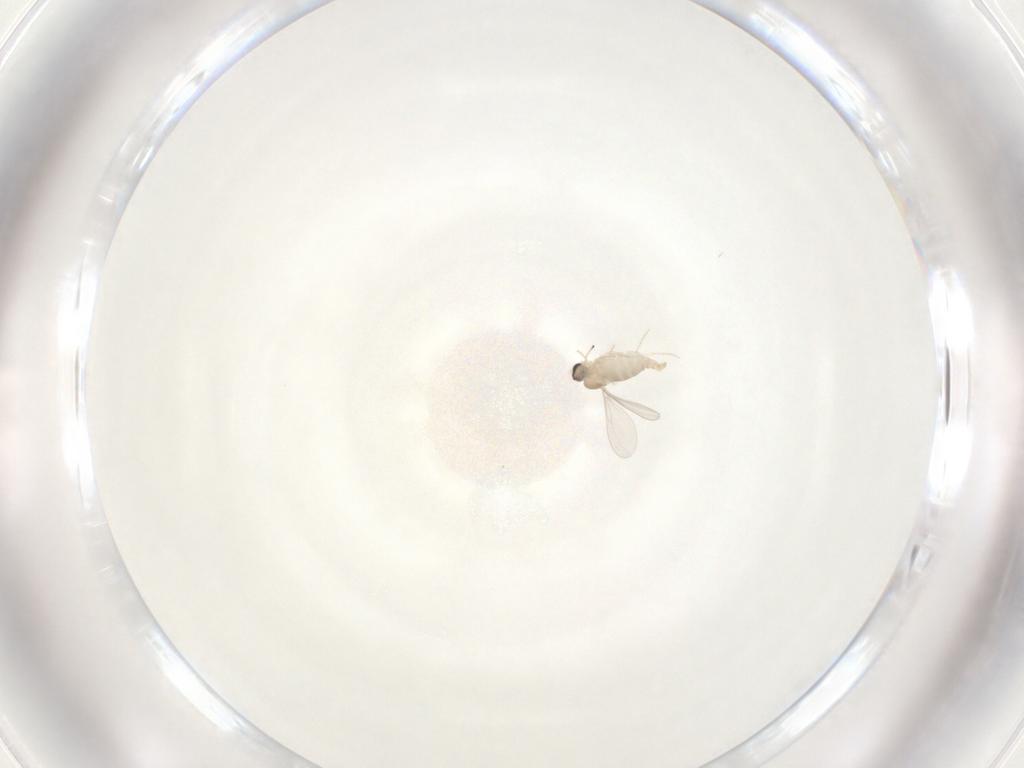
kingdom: Animalia
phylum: Arthropoda
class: Insecta
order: Diptera
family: Cecidomyiidae
